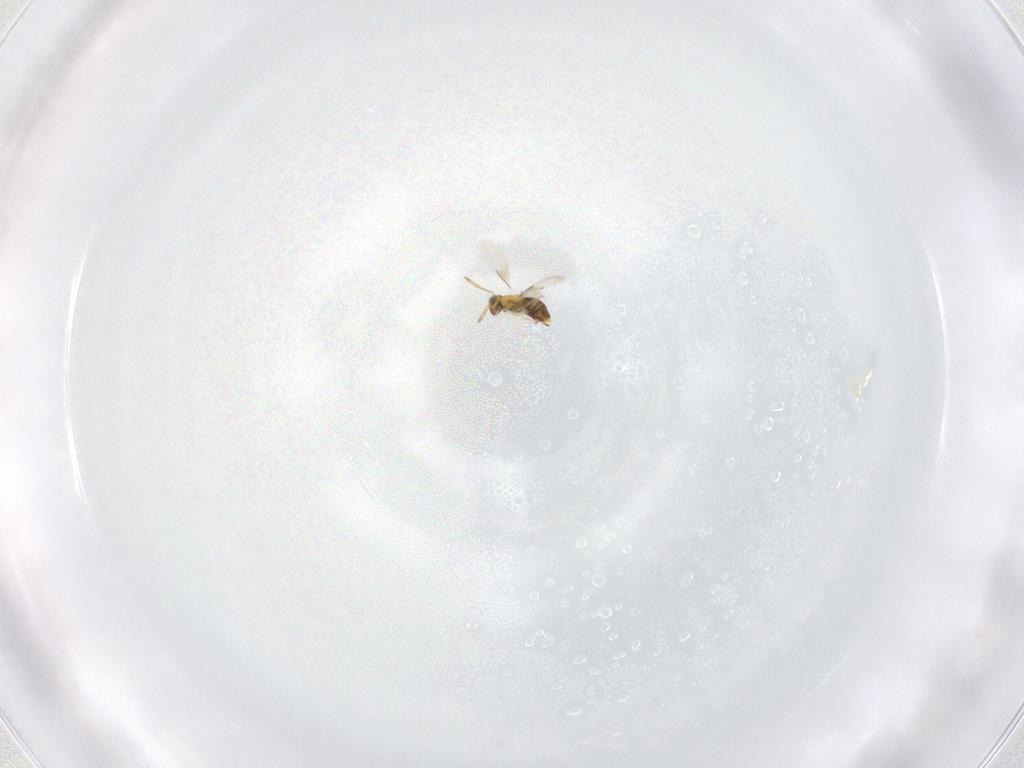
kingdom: Animalia
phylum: Arthropoda
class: Insecta
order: Hymenoptera
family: Aphelinidae
